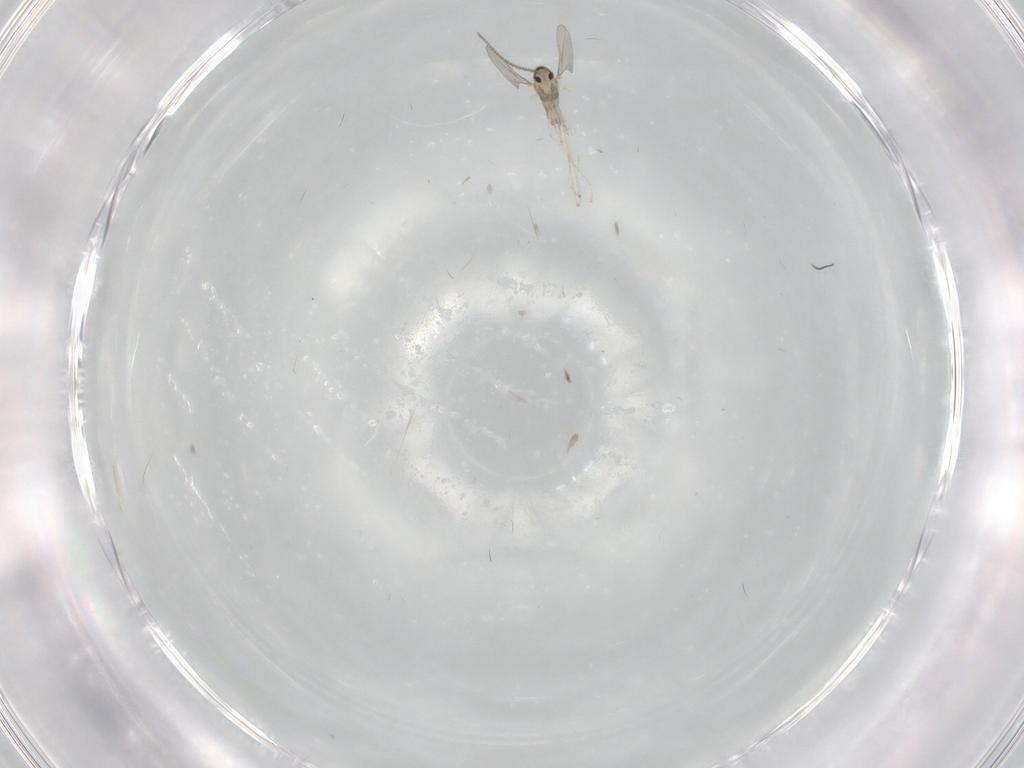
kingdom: Animalia
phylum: Arthropoda
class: Insecta
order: Diptera
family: Cecidomyiidae
